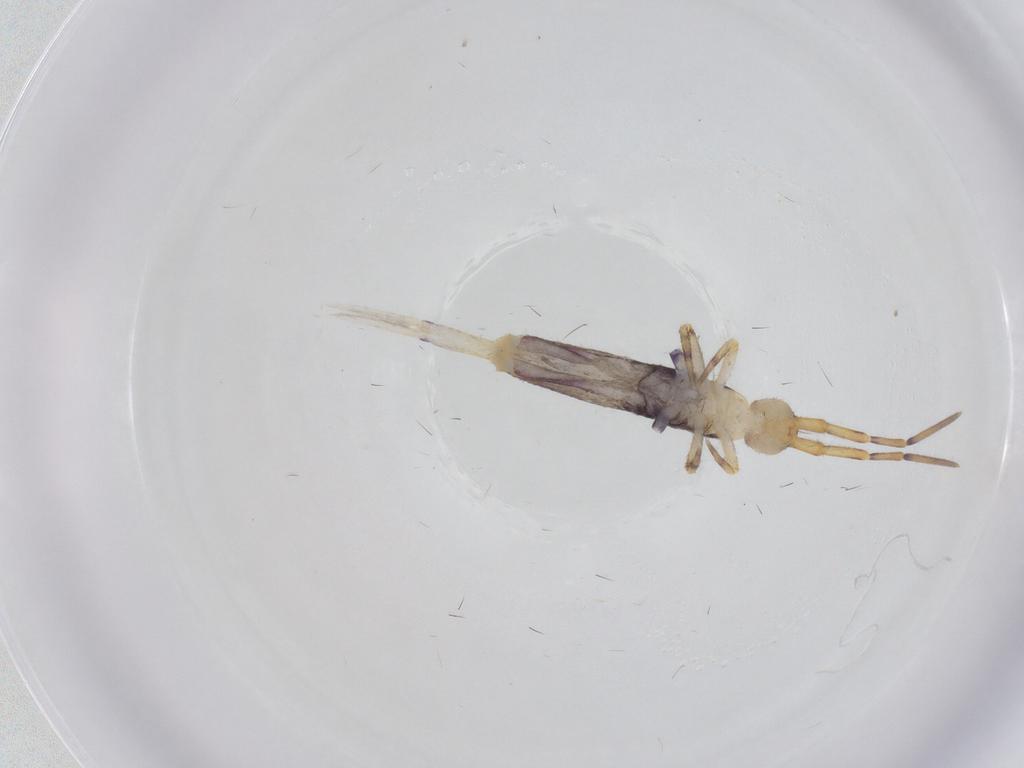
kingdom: Animalia
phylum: Arthropoda
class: Collembola
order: Entomobryomorpha
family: Entomobryidae
